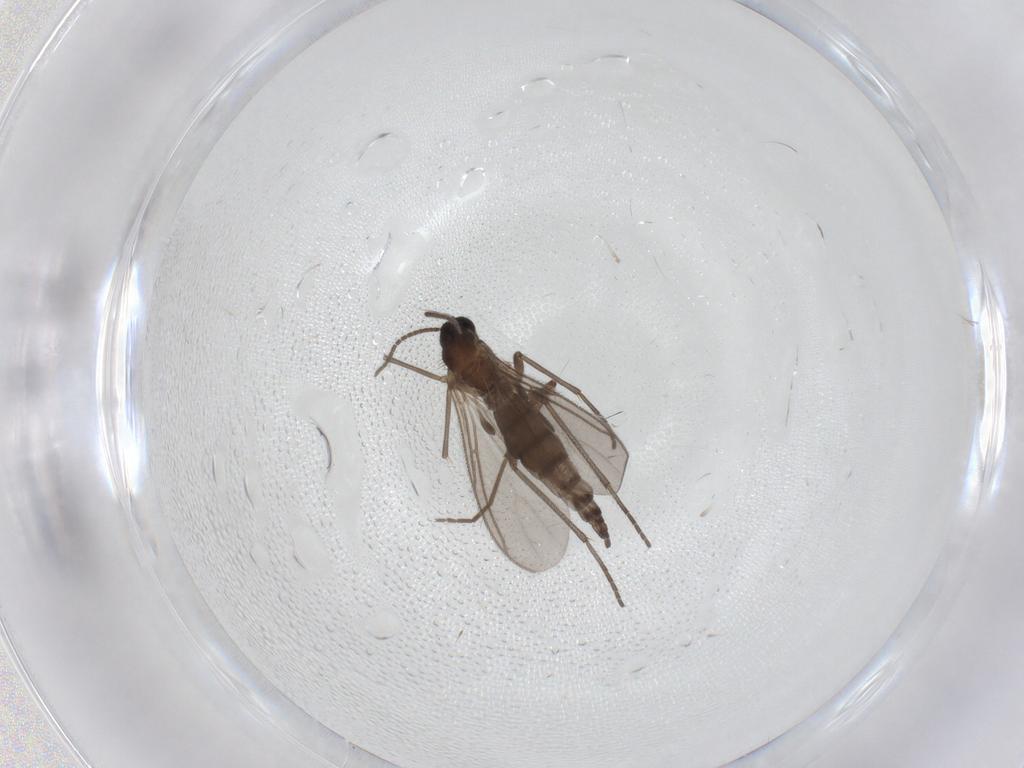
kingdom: Animalia
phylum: Arthropoda
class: Insecta
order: Diptera
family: Sciaridae
